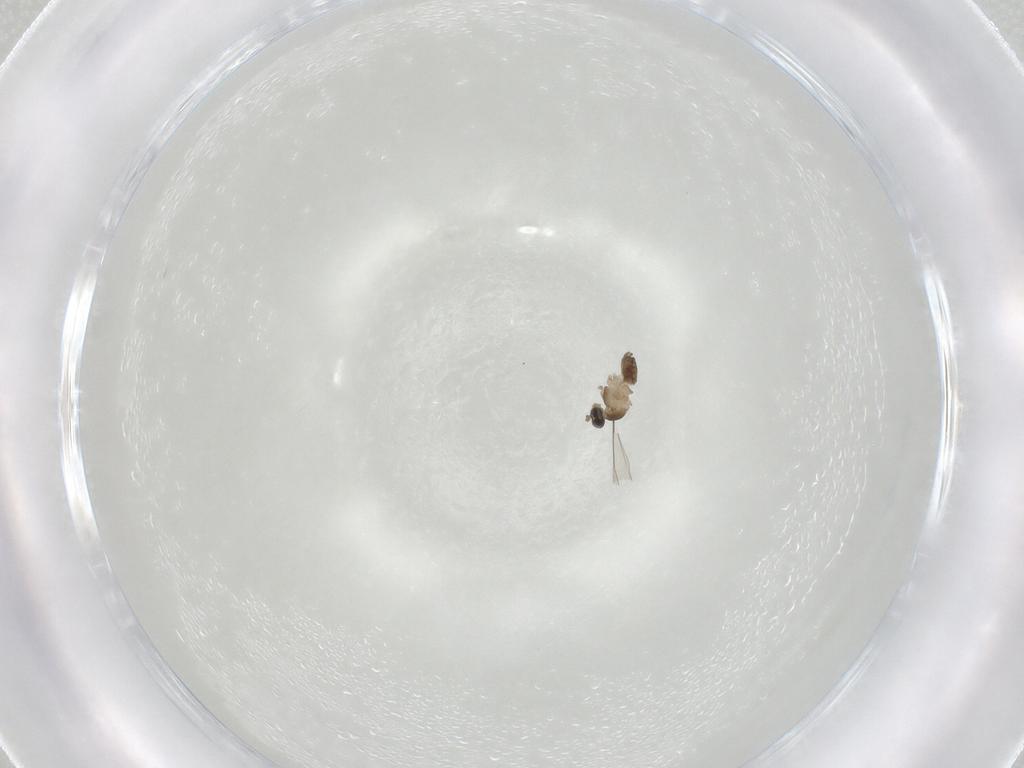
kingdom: Animalia
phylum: Arthropoda
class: Insecta
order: Diptera
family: Cecidomyiidae
